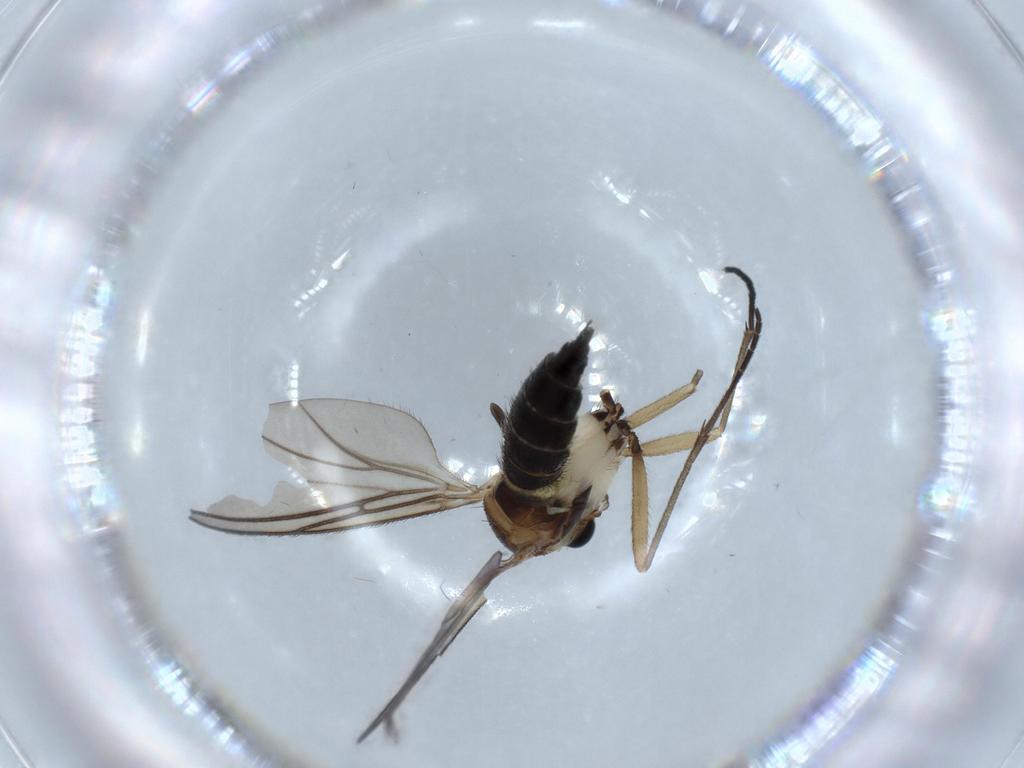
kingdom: Animalia
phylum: Arthropoda
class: Insecta
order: Diptera
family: Sciaridae
